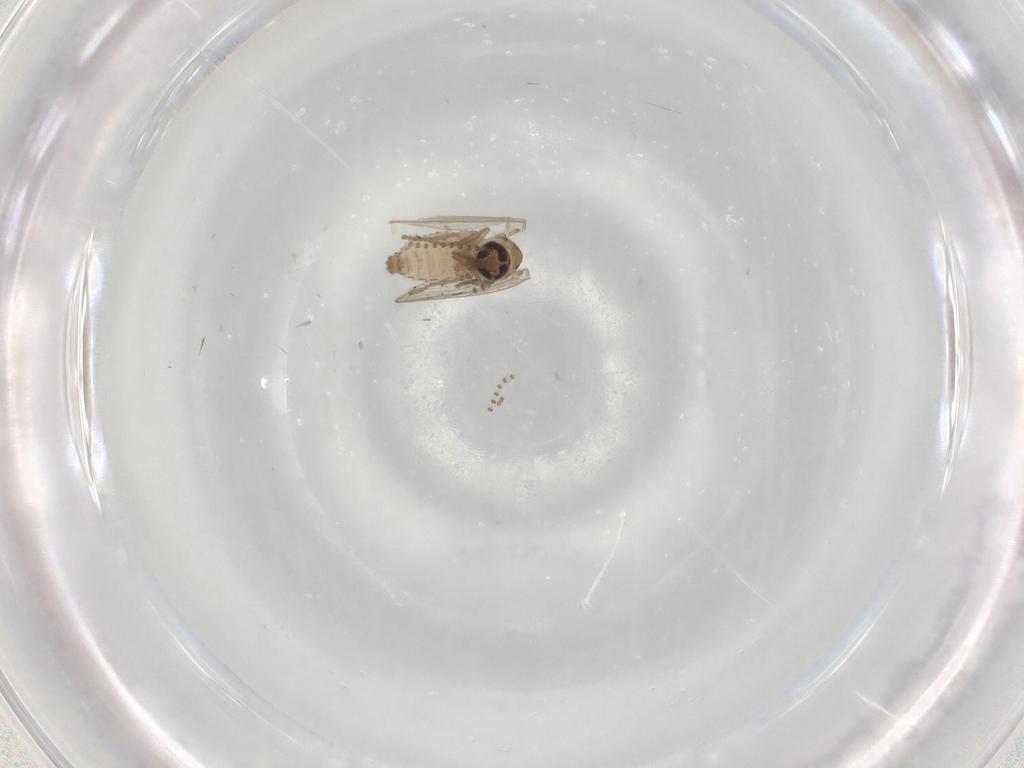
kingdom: Animalia
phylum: Arthropoda
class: Insecta
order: Diptera
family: Psychodidae
